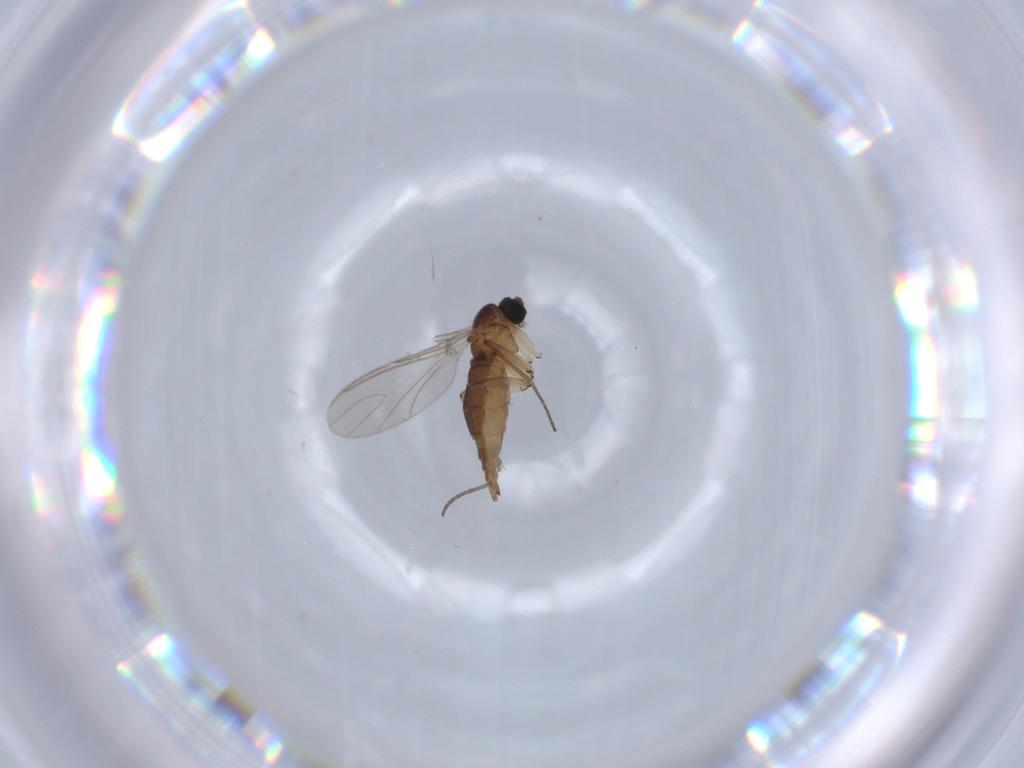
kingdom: Animalia
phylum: Arthropoda
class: Insecta
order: Diptera
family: Sciaridae
